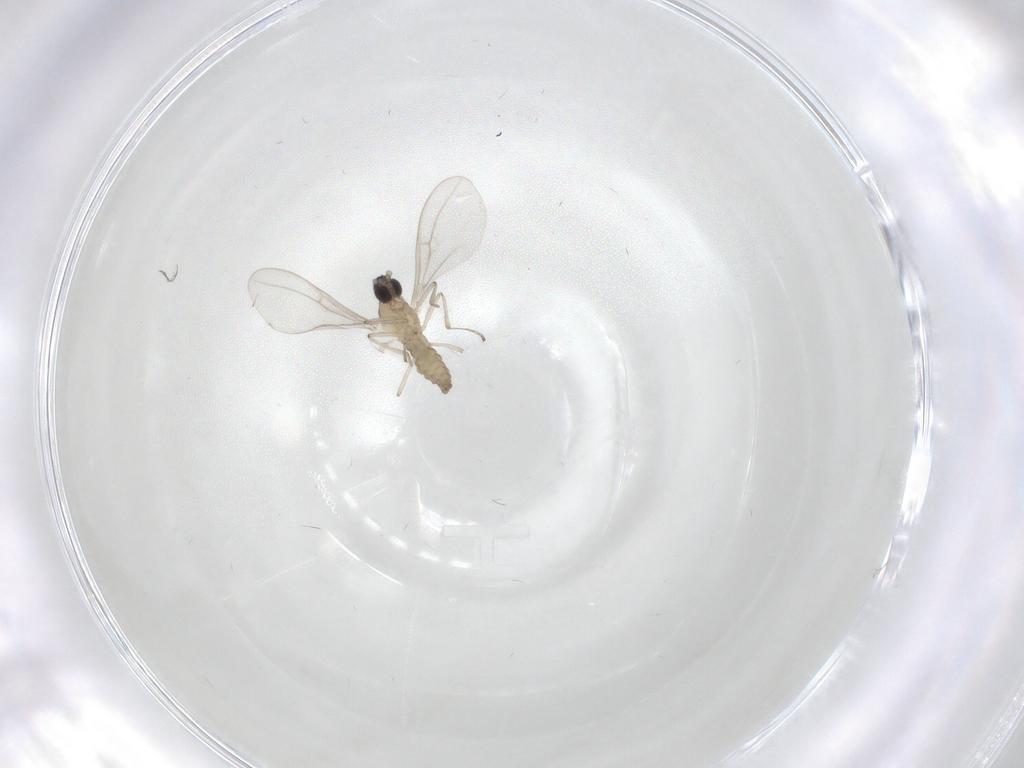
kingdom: Animalia
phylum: Arthropoda
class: Insecta
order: Diptera
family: Cecidomyiidae
